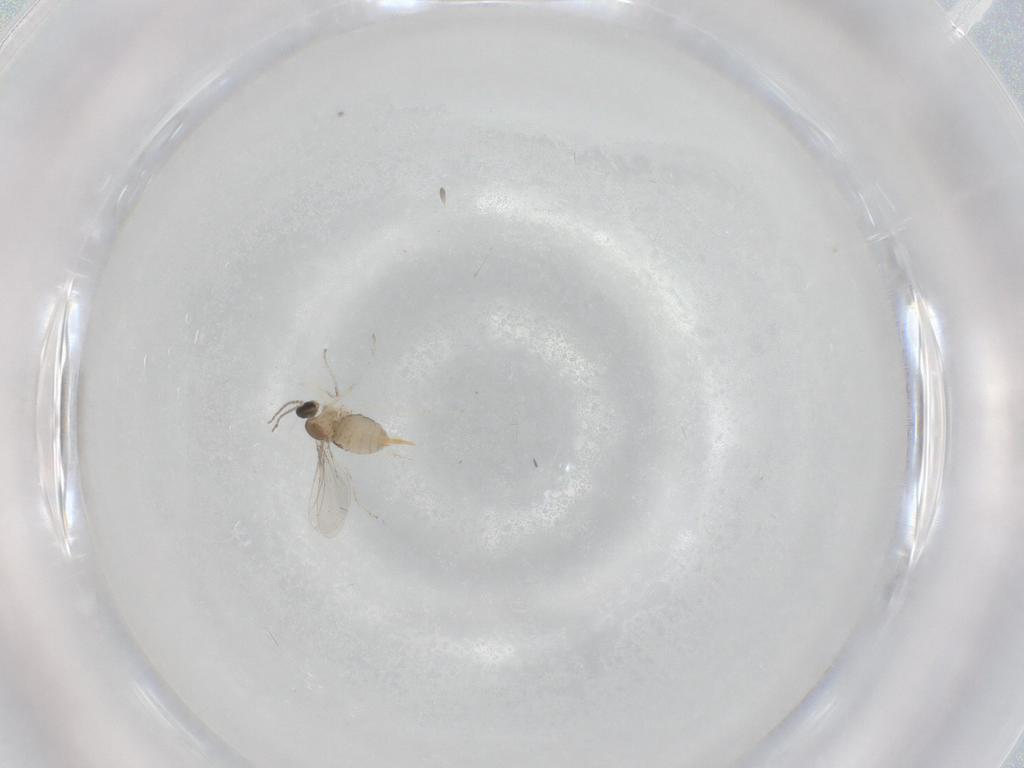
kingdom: Animalia
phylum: Arthropoda
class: Insecta
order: Diptera
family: Cecidomyiidae
